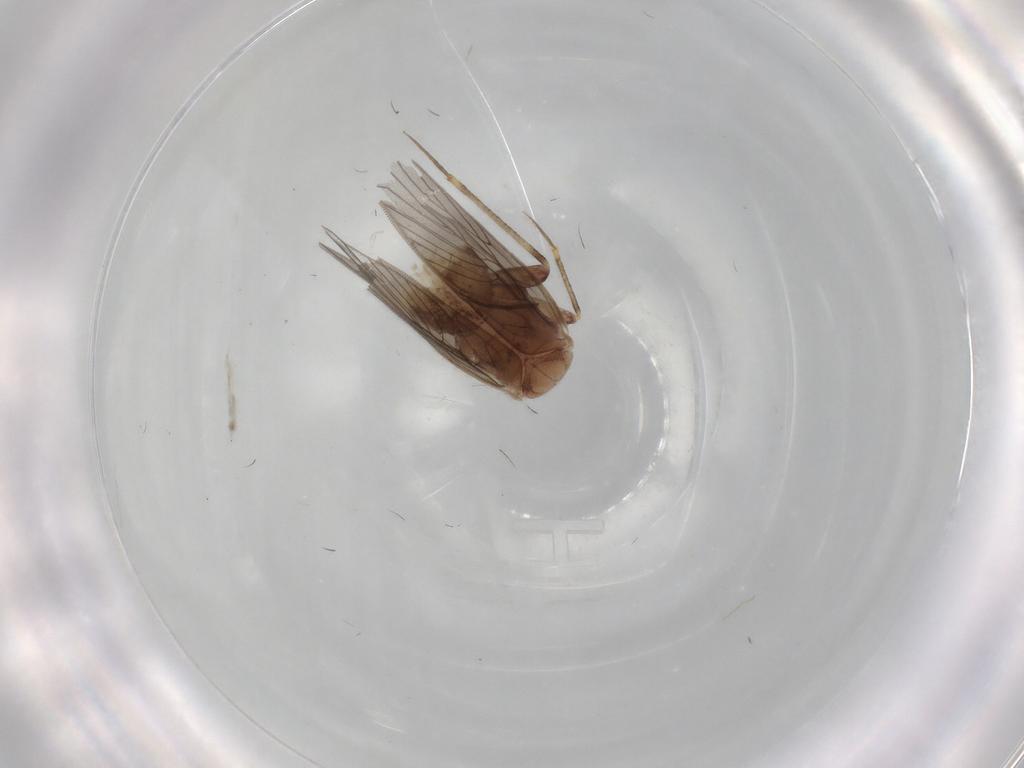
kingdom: Animalia
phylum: Arthropoda
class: Insecta
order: Psocodea
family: Lepidopsocidae
